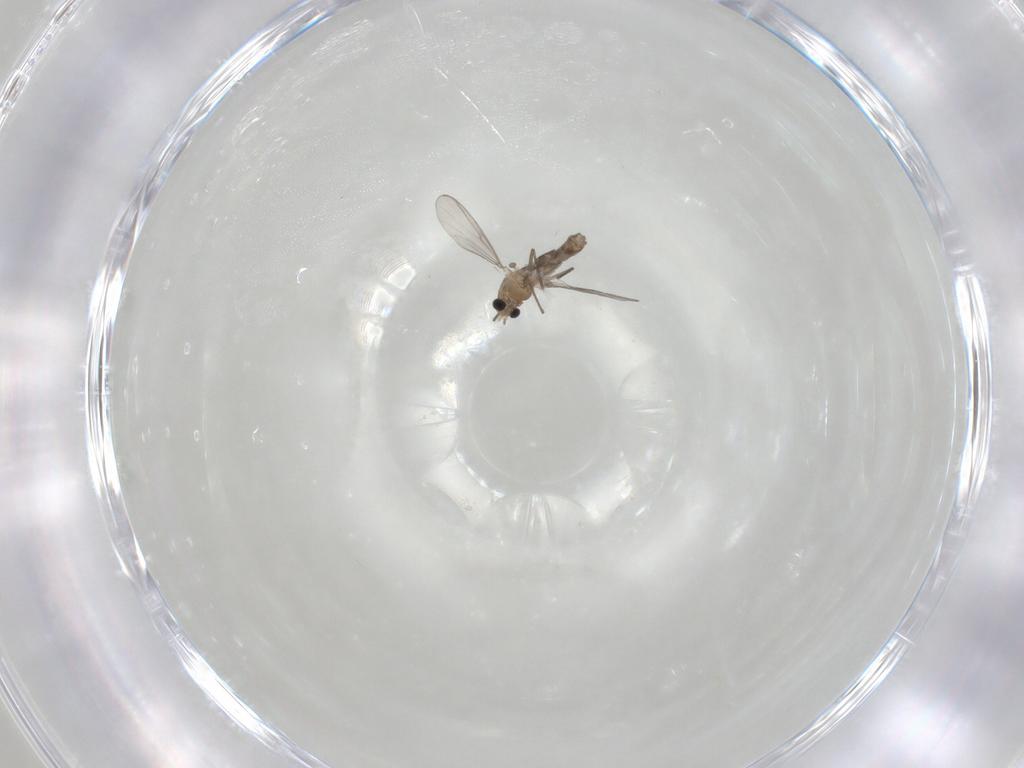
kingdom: Animalia
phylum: Arthropoda
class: Insecta
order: Diptera
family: Chironomidae
